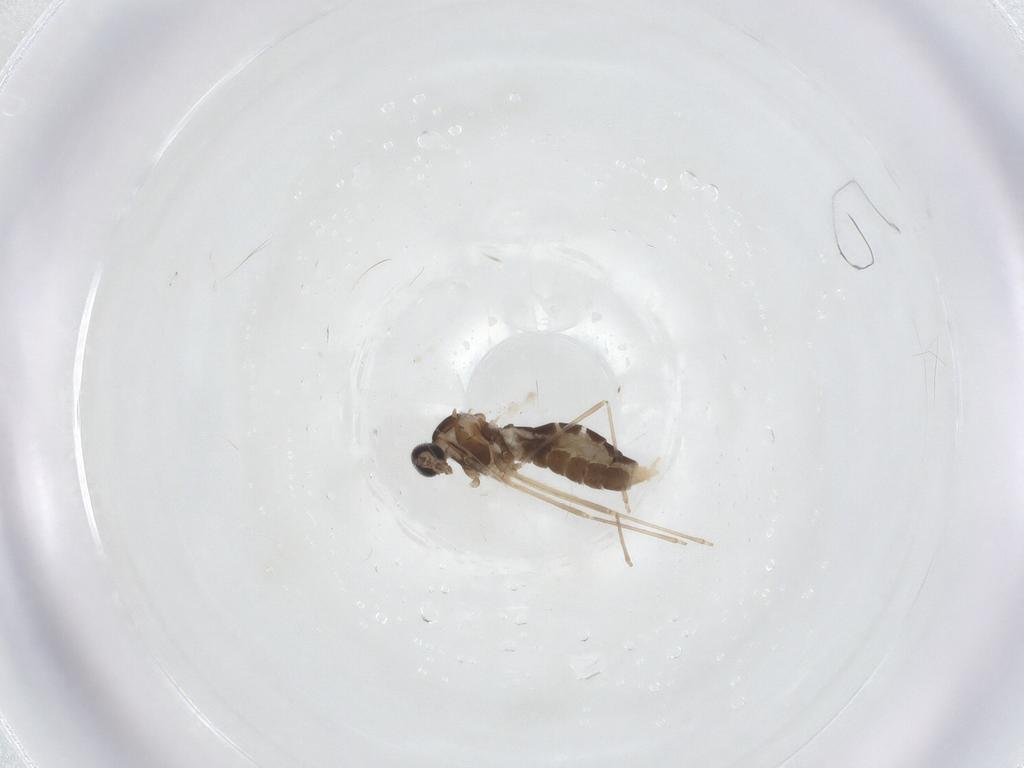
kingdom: Animalia
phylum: Arthropoda
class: Insecta
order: Diptera
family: Cecidomyiidae
